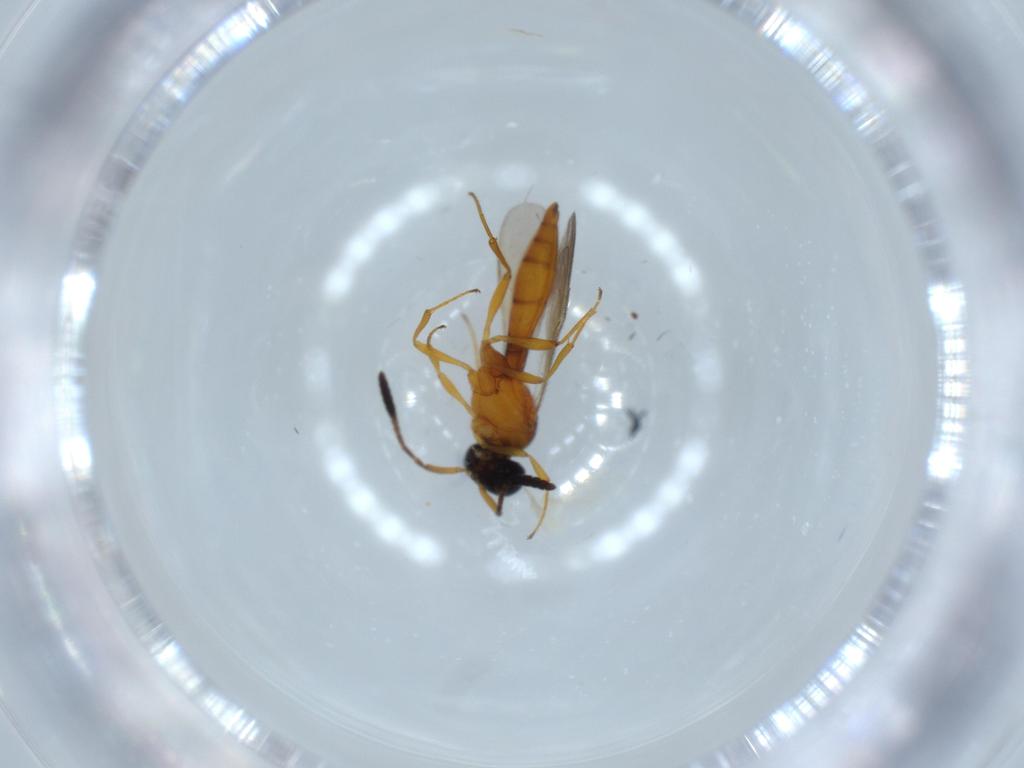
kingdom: Animalia
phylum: Arthropoda
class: Insecta
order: Hymenoptera
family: Scelionidae
